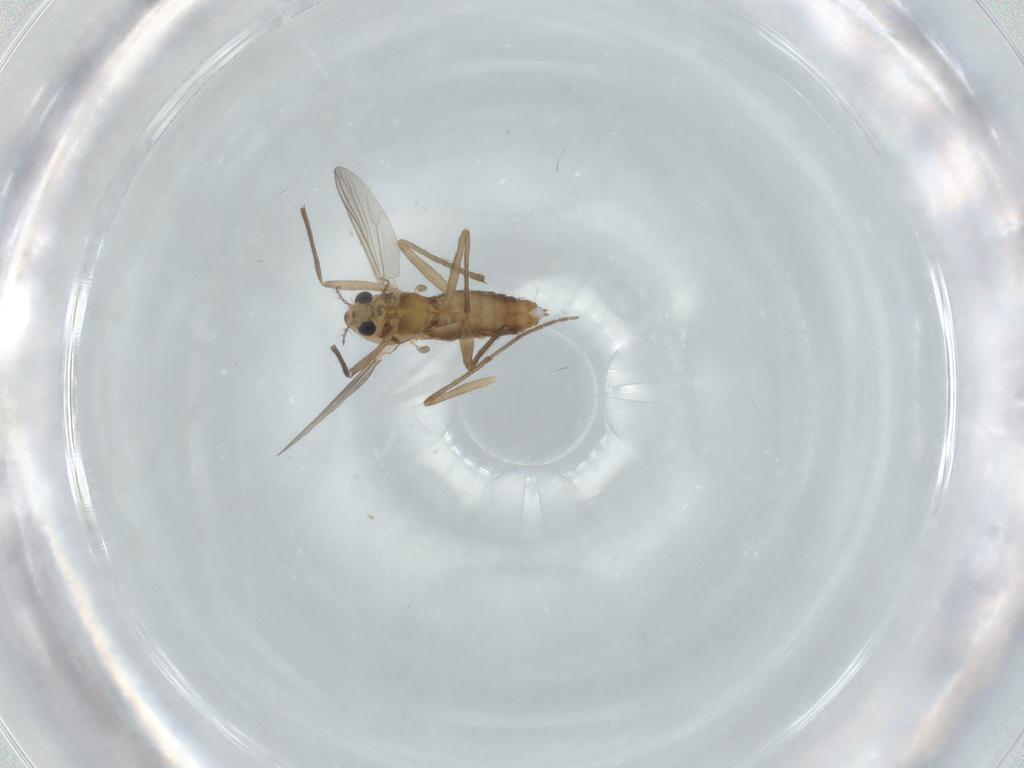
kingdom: Animalia
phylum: Arthropoda
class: Insecta
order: Diptera
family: Chironomidae
